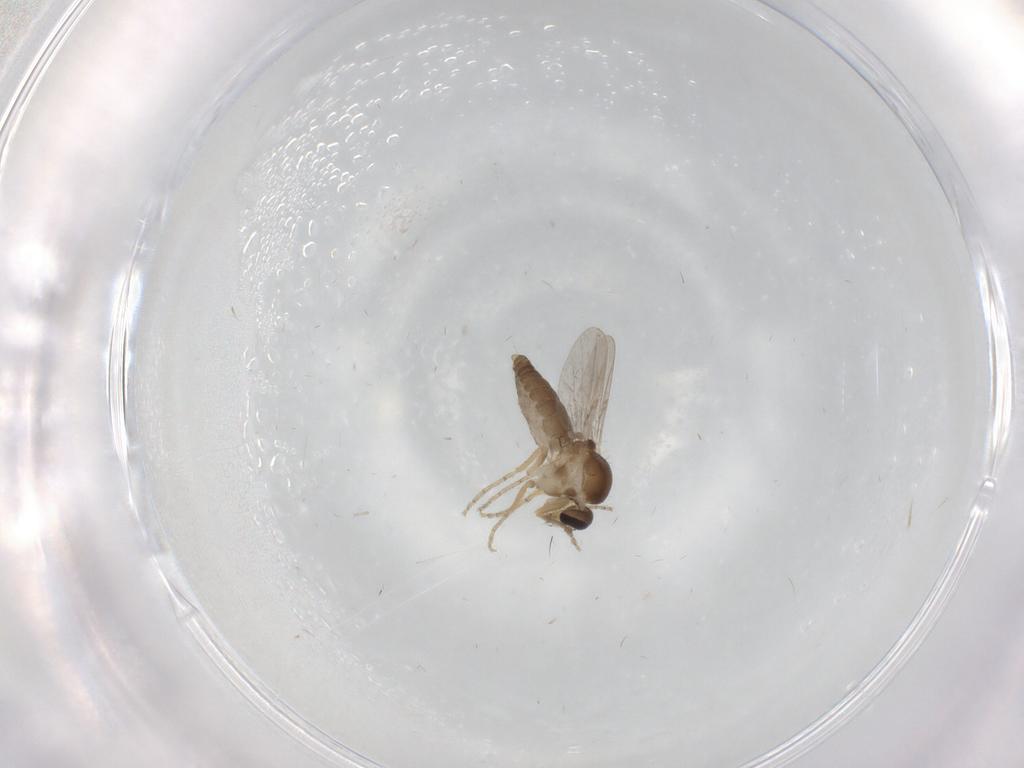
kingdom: Animalia
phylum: Arthropoda
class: Insecta
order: Diptera
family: Ceratopogonidae
